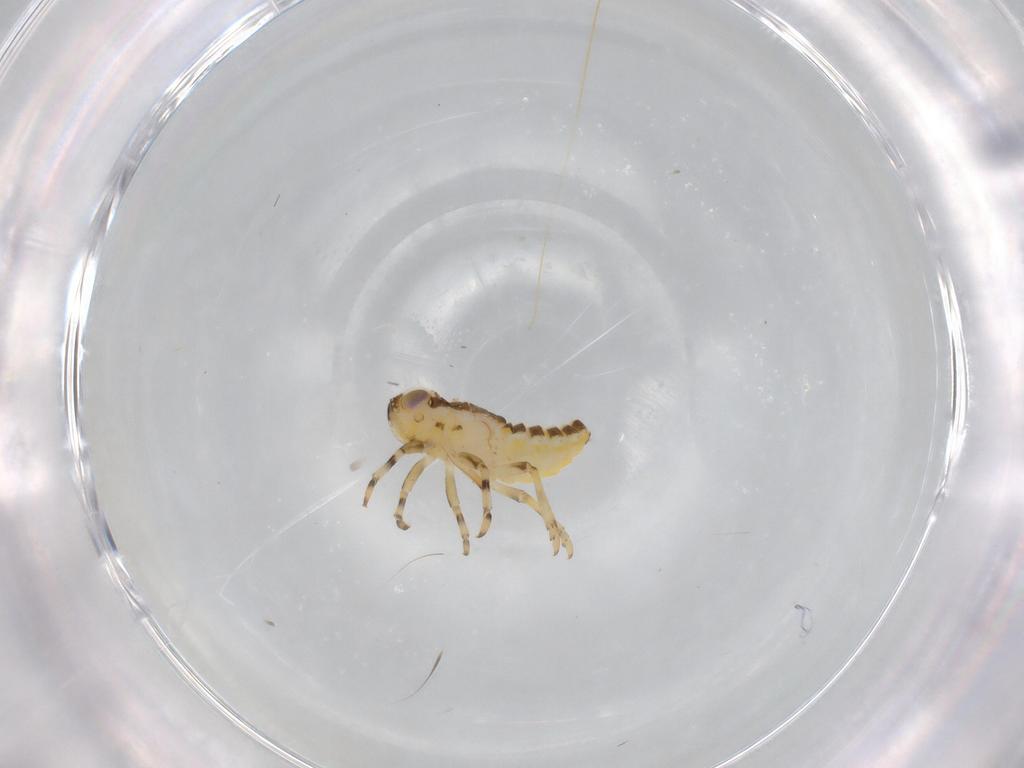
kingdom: Animalia
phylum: Arthropoda
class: Insecta
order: Hemiptera
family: Issidae
